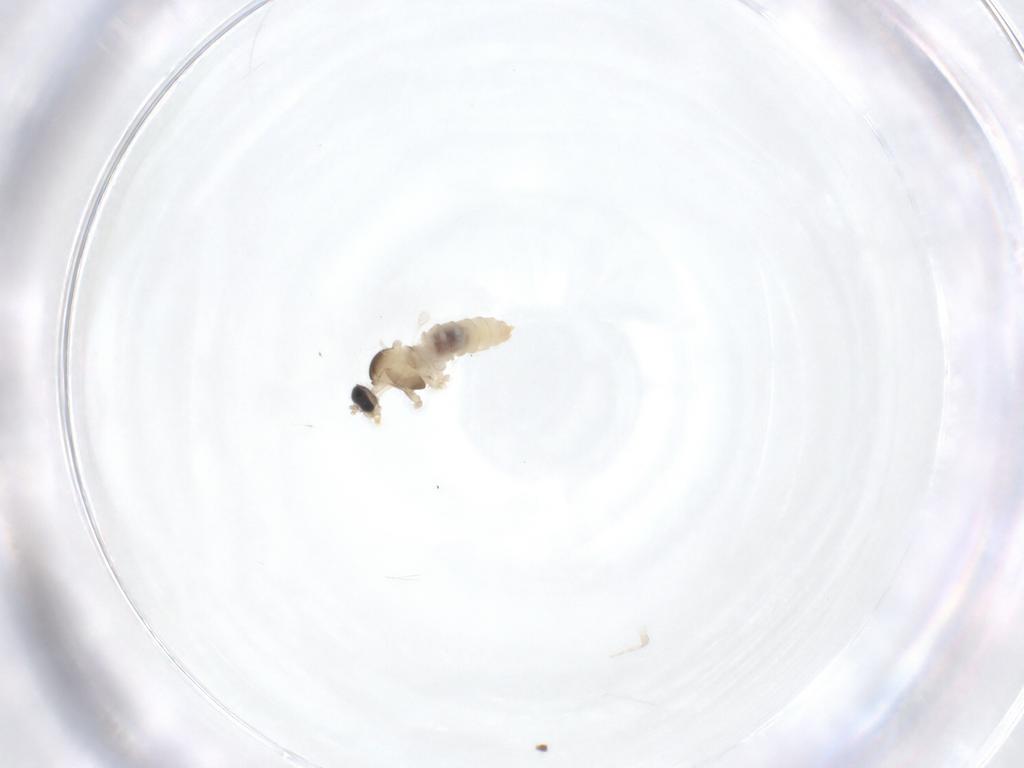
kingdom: Animalia
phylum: Arthropoda
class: Insecta
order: Diptera
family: Cecidomyiidae
